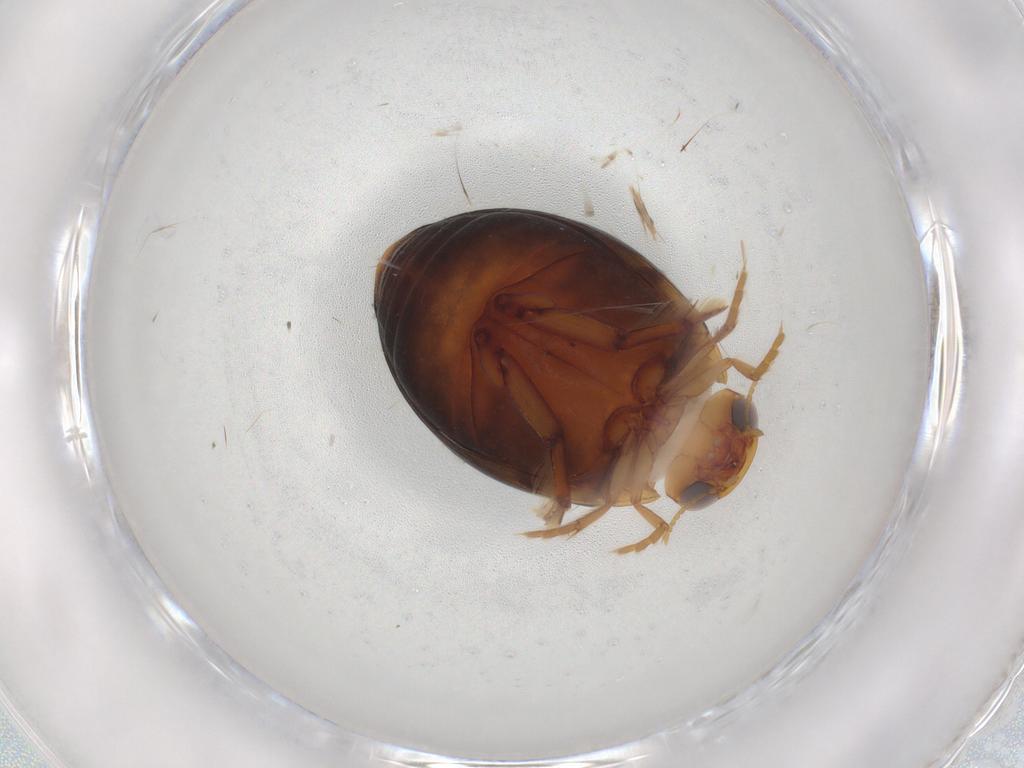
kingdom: Animalia
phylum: Arthropoda
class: Insecta
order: Coleoptera
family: Dytiscidae
